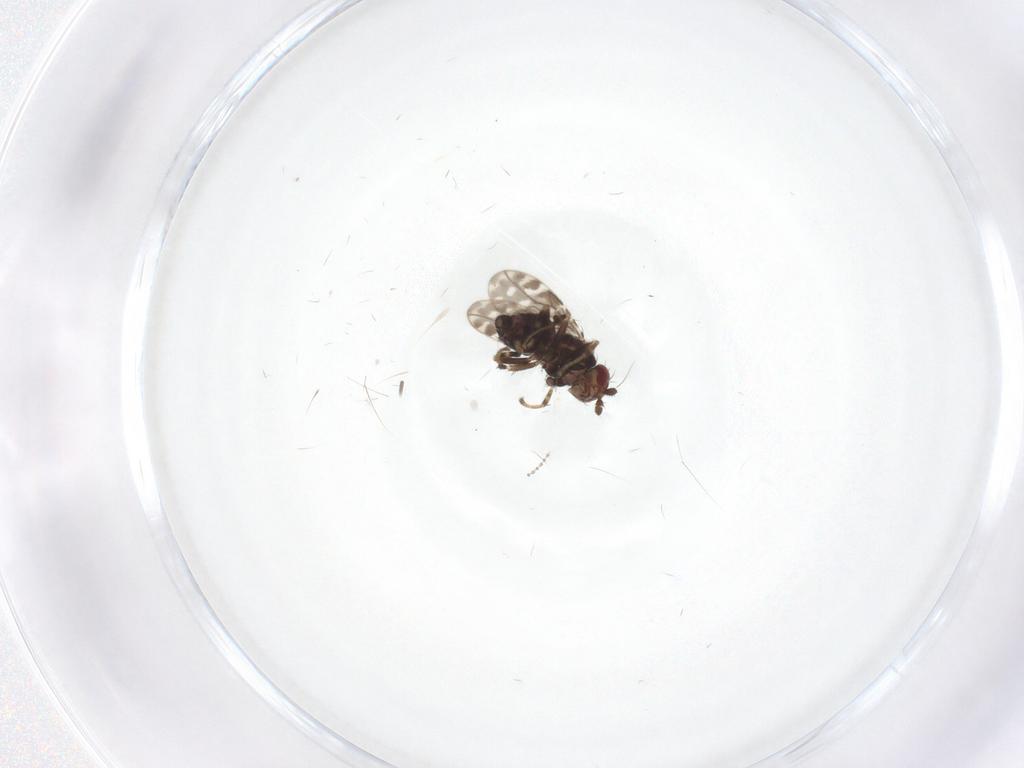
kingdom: Animalia
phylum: Arthropoda
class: Insecta
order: Diptera
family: Sphaeroceridae
